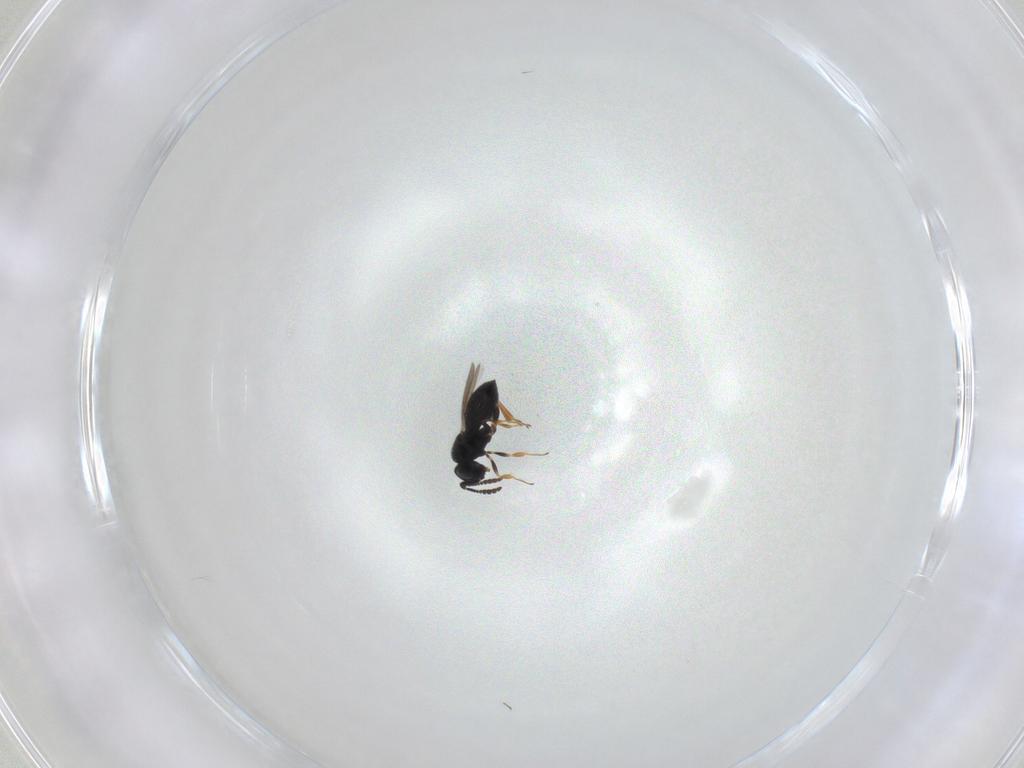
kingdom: Animalia
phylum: Arthropoda
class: Insecta
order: Hymenoptera
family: Scelionidae
